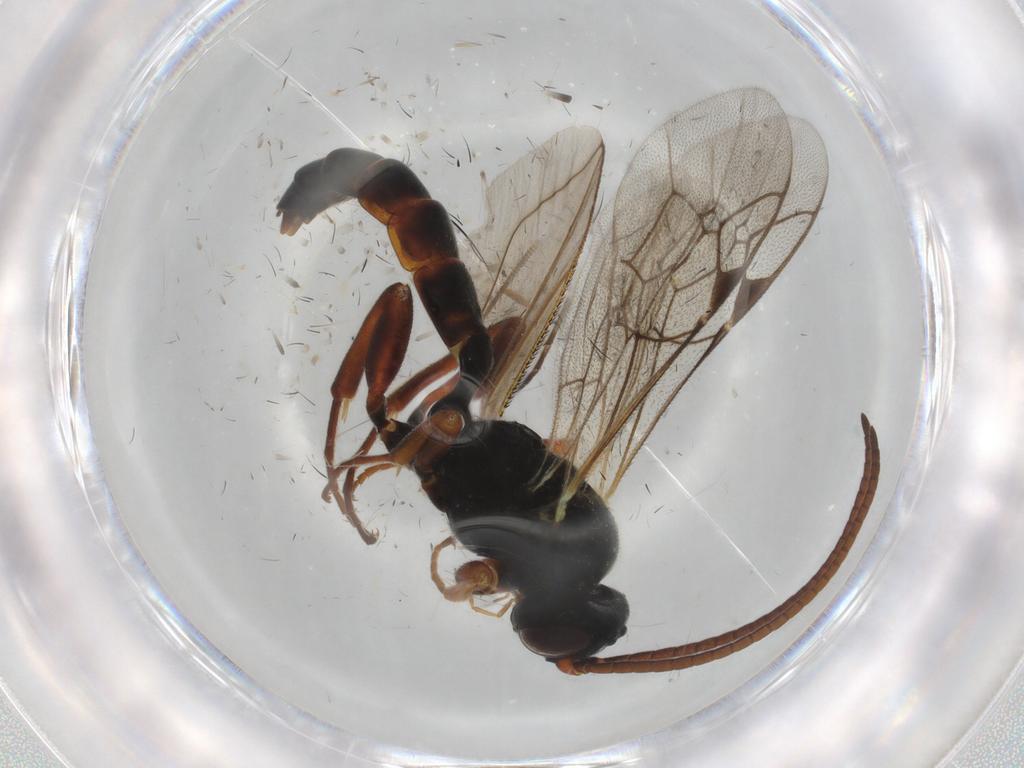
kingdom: Animalia
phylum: Arthropoda
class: Insecta
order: Hymenoptera
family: Ichneumonidae
